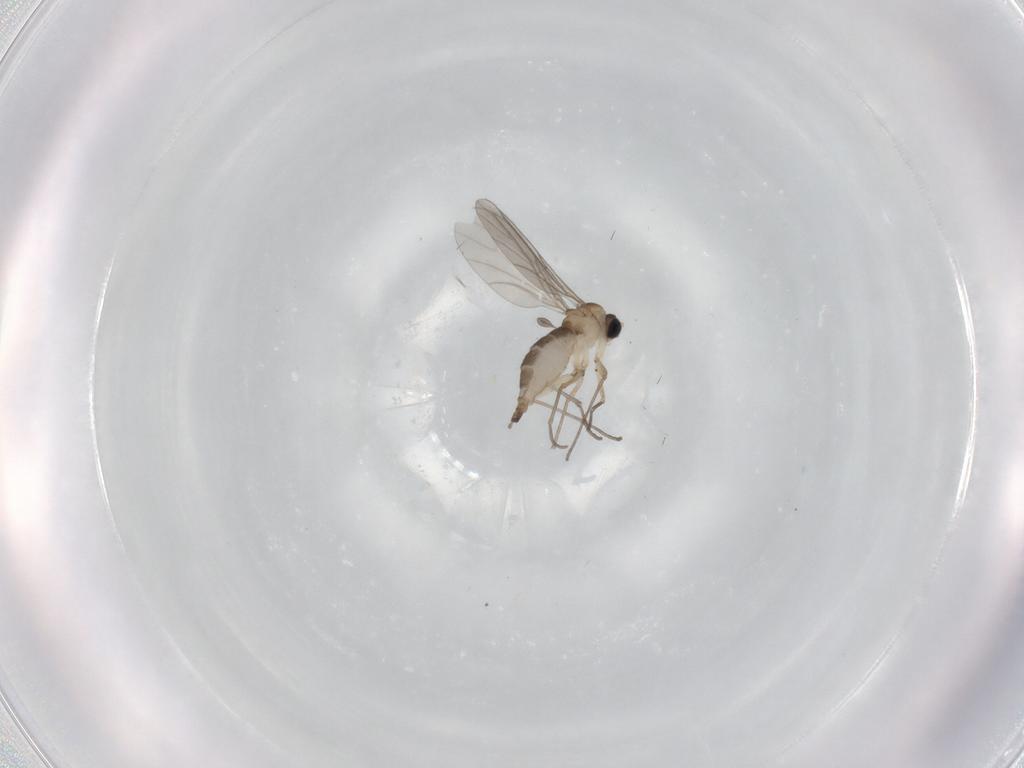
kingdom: Animalia
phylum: Arthropoda
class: Insecta
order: Diptera
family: Sciaridae
